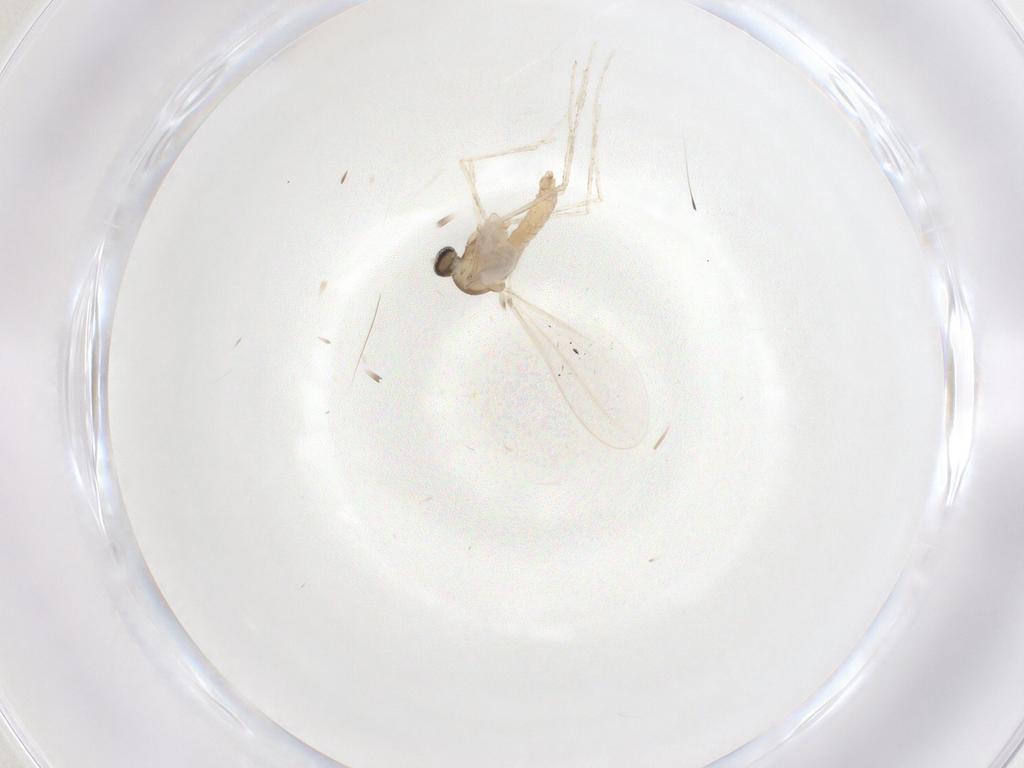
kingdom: Animalia
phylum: Arthropoda
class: Insecta
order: Diptera
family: Cecidomyiidae
